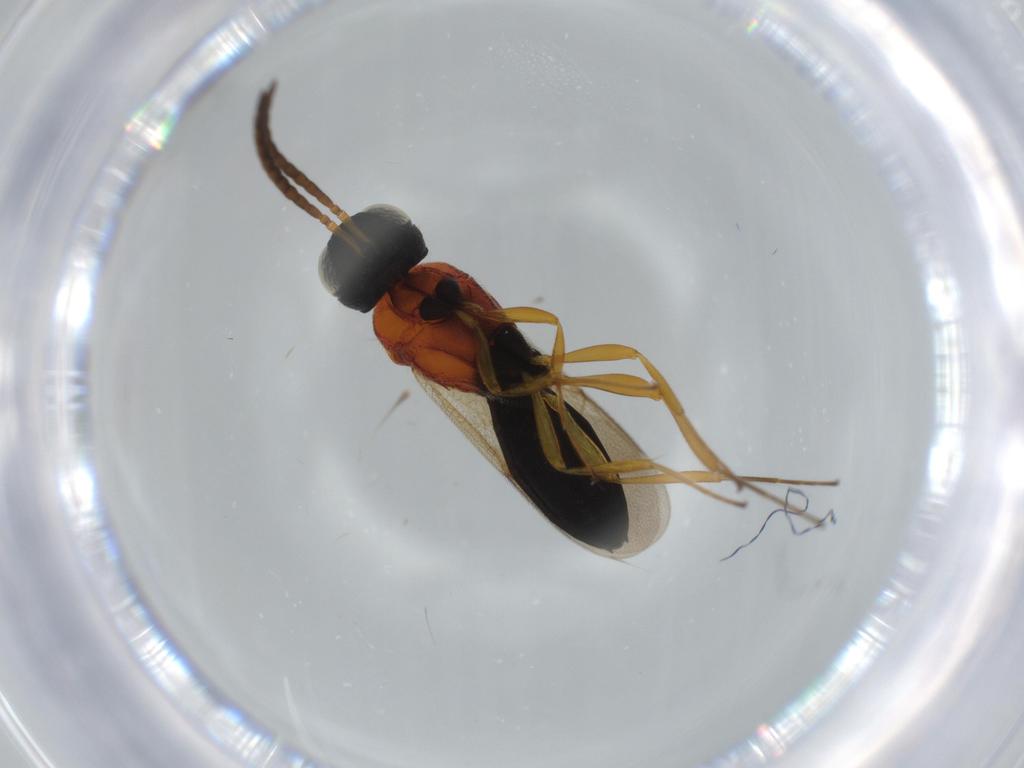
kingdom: Animalia
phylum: Arthropoda
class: Insecta
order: Hymenoptera
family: Scelionidae
